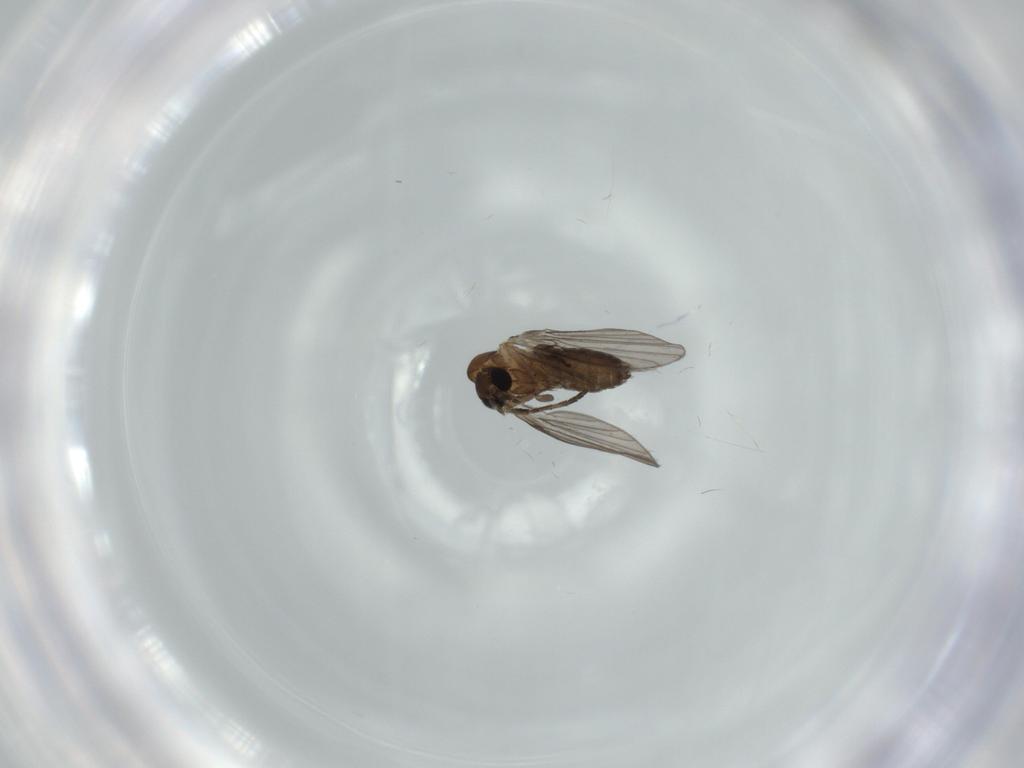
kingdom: Animalia
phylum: Arthropoda
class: Insecta
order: Diptera
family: Psychodidae
